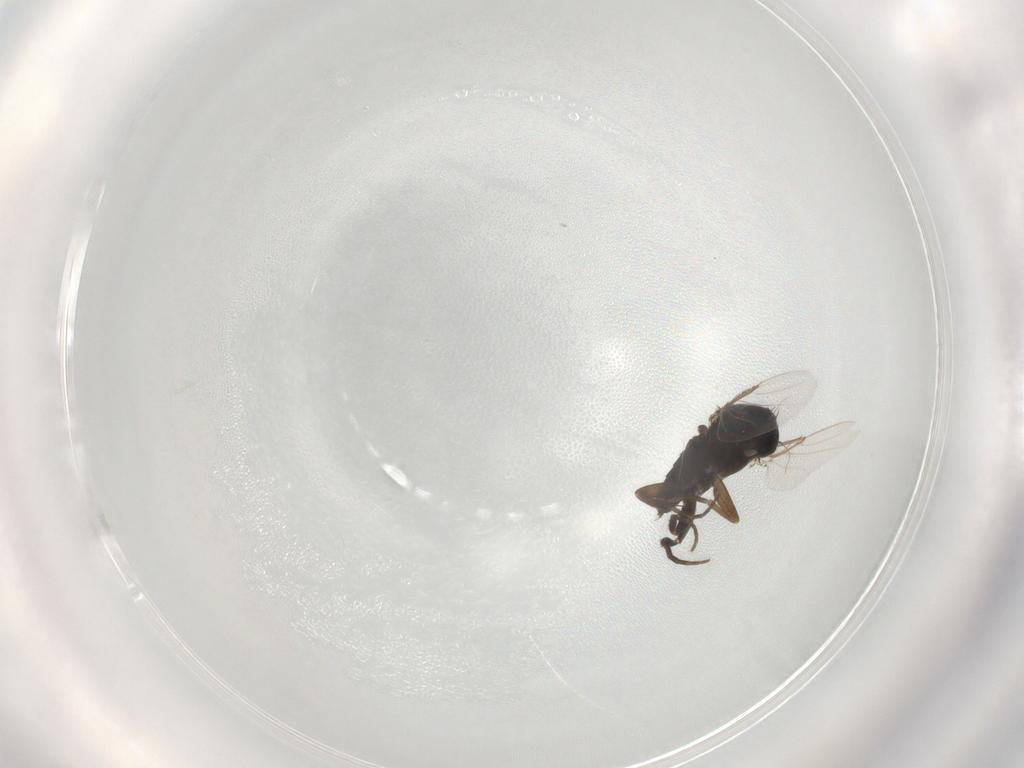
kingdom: Animalia
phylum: Arthropoda
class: Insecta
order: Diptera
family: Phoridae
